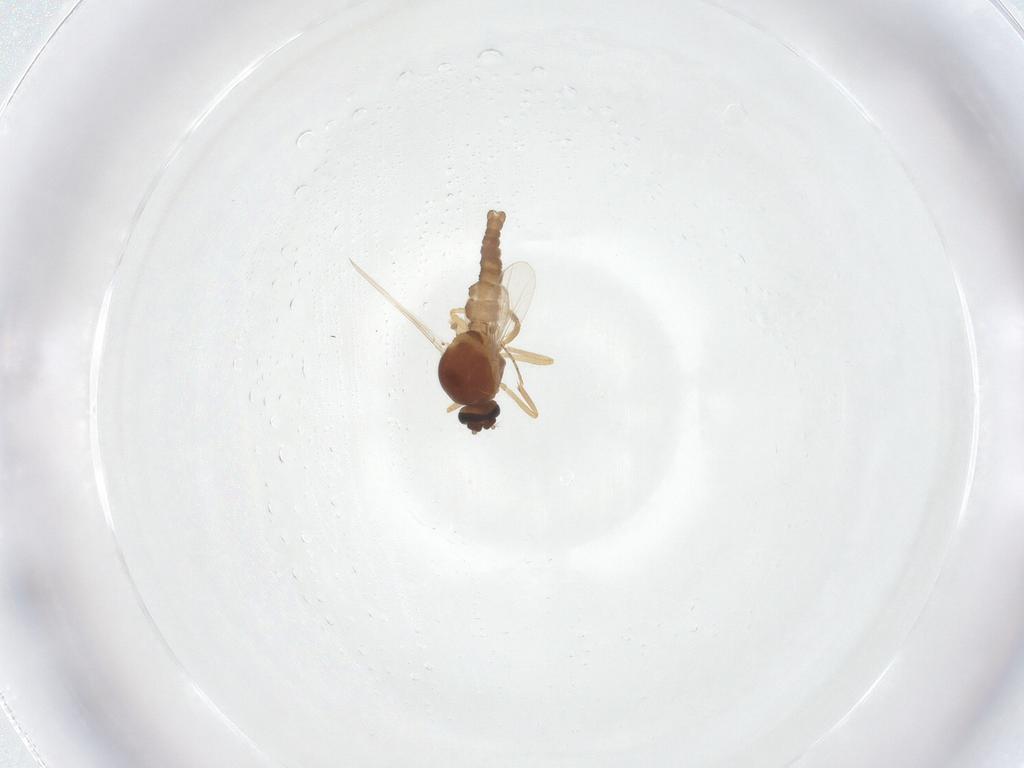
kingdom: Animalia
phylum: Arthropoda
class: Insecta
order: Diptera
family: Ceratopogonidae
